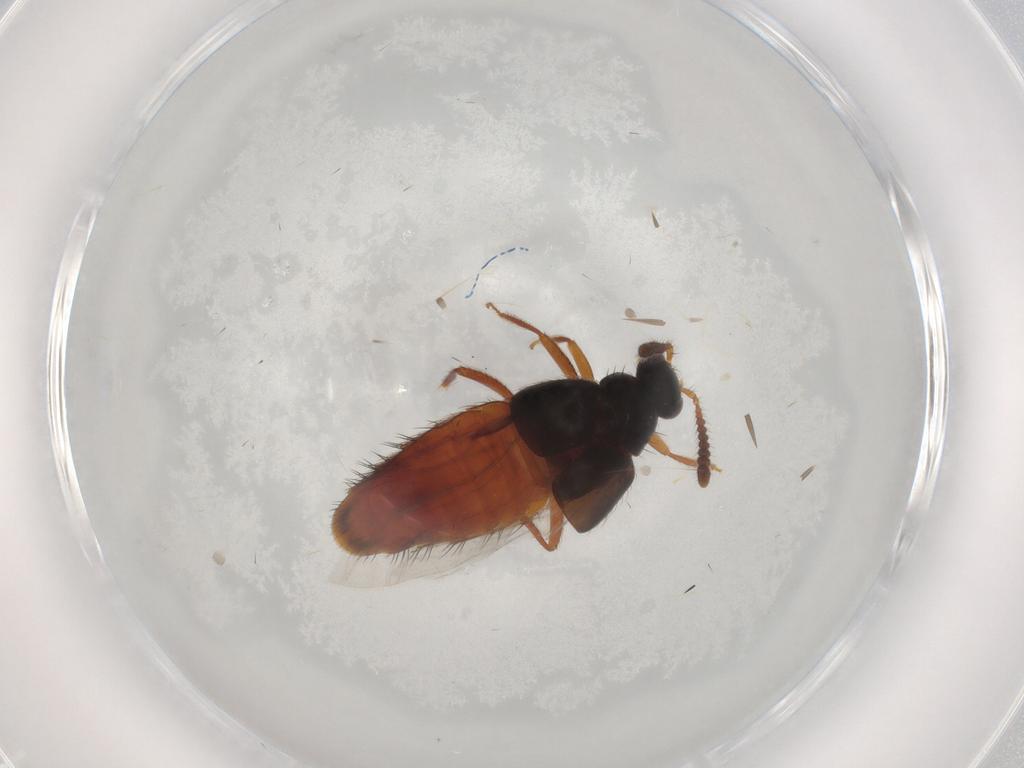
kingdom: Animalia
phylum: Arthropoda
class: Insecta
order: Coleoptera
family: Staphylinidae
